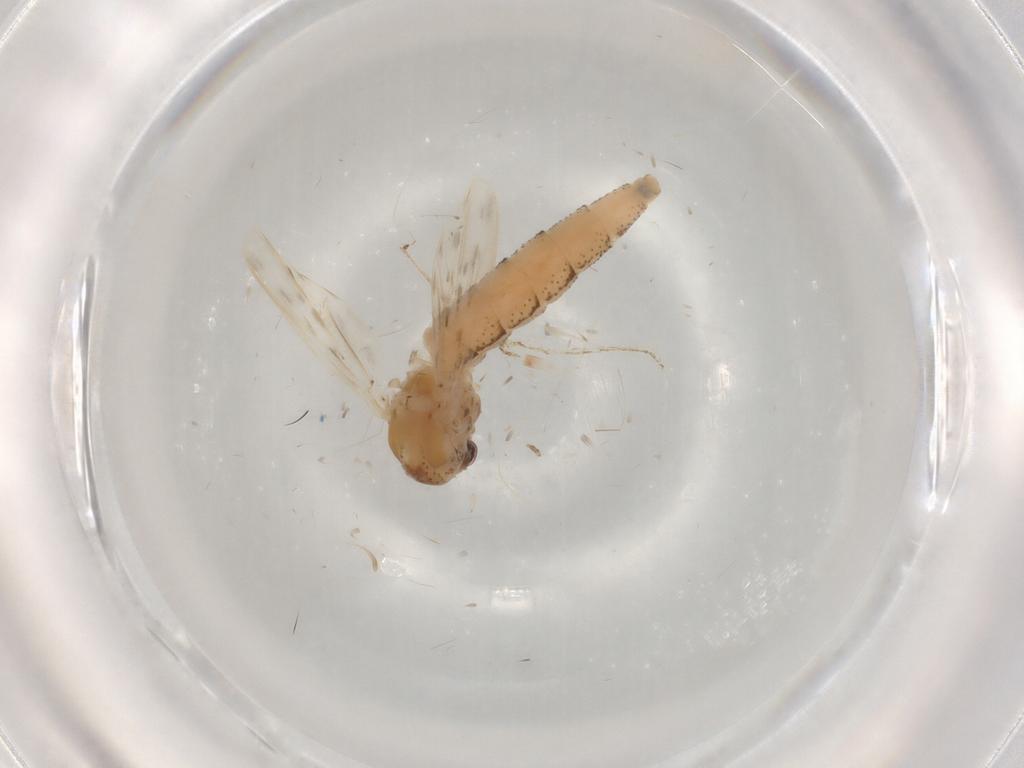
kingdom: Animalia
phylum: Arthropoda
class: Insecta
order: Diptera
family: Chaoboridae
